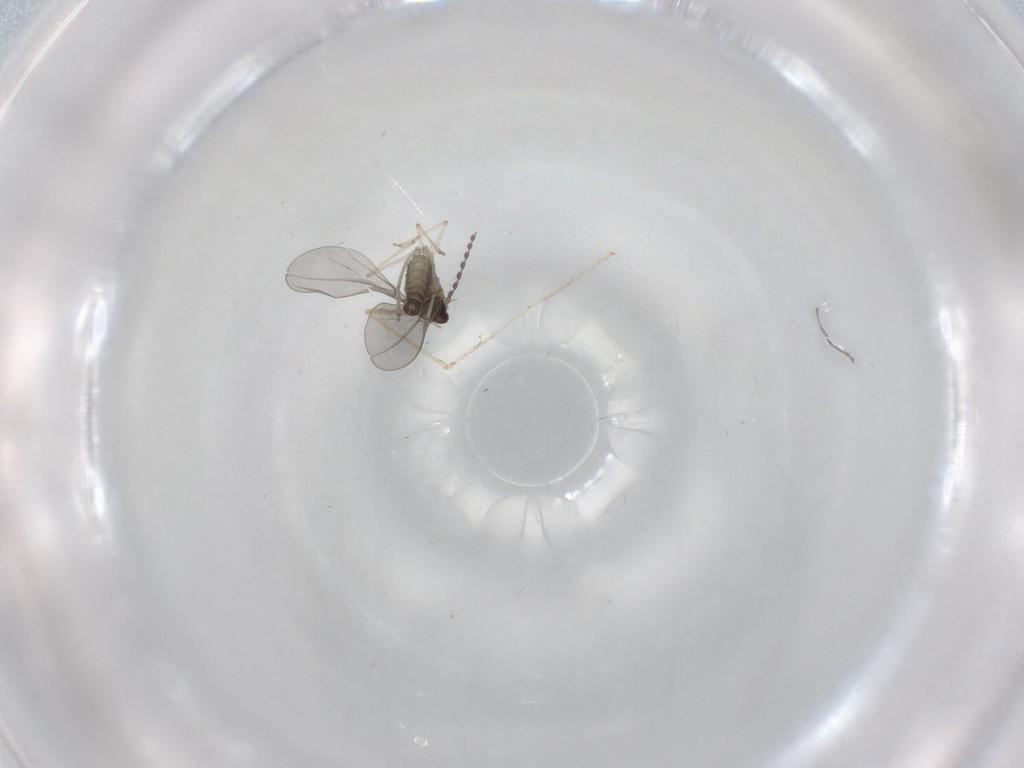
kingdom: Animalia
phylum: Arthropoda
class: Insecta
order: Diptera
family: Cecidomyiidae
